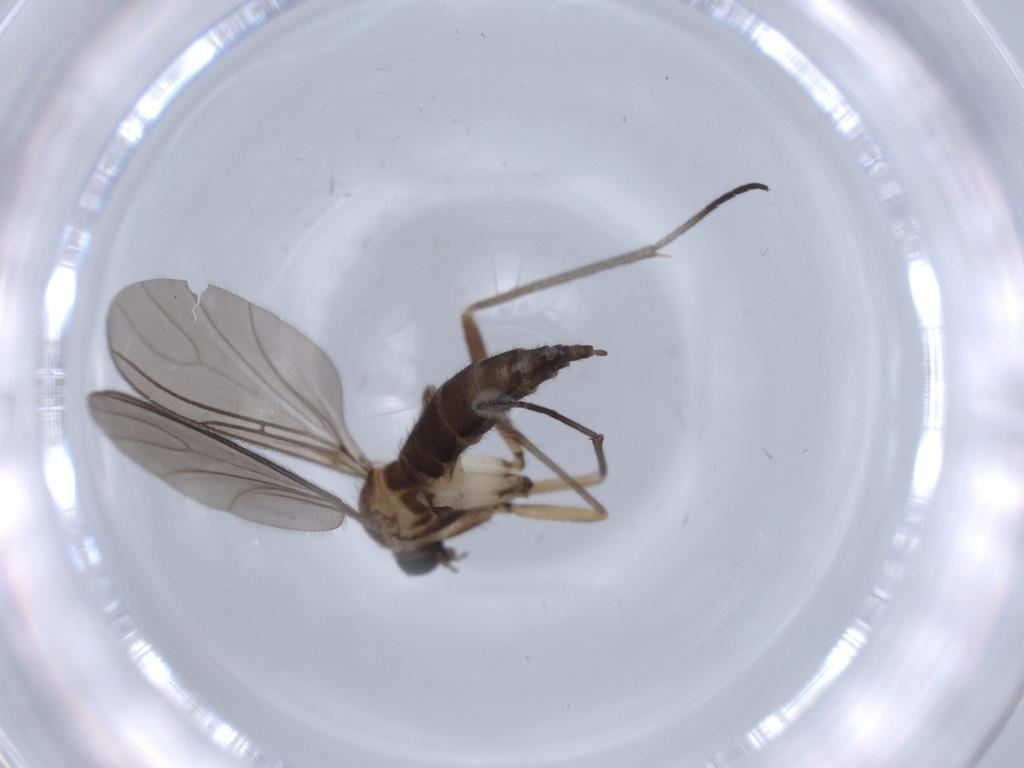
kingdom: Animalia
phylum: Arthropoda
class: Insecta
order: Diptera
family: Sciaridae
